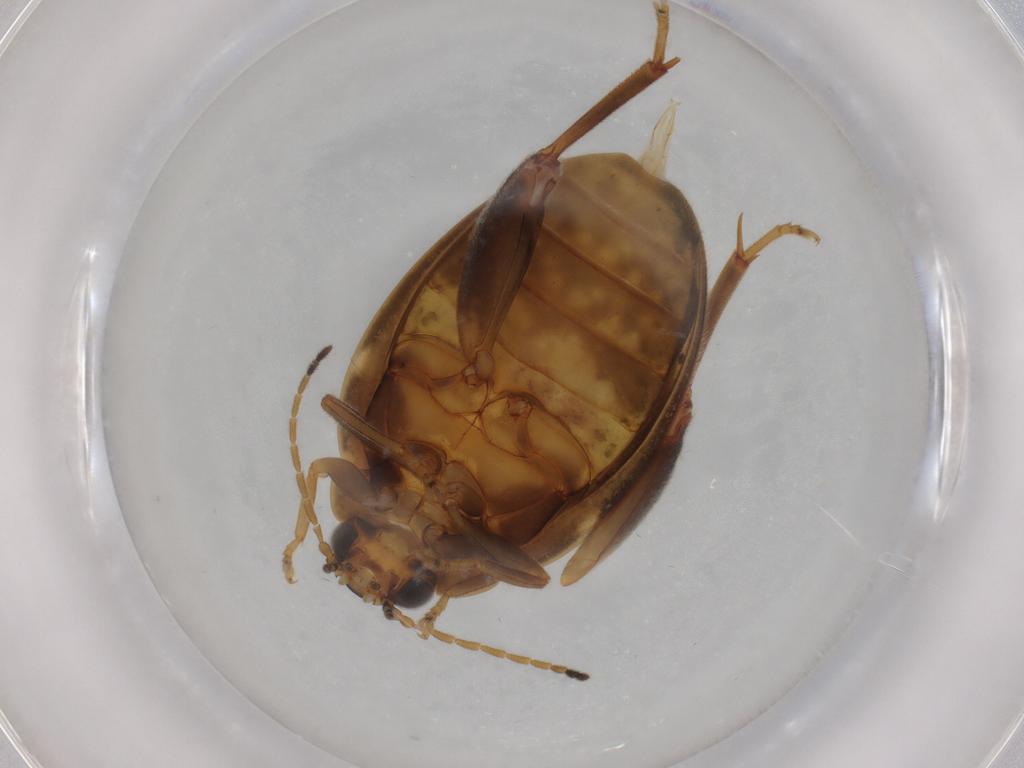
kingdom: Animalia
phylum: Arthropoda
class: Insecta
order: Coleoptera
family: Scirtidae
